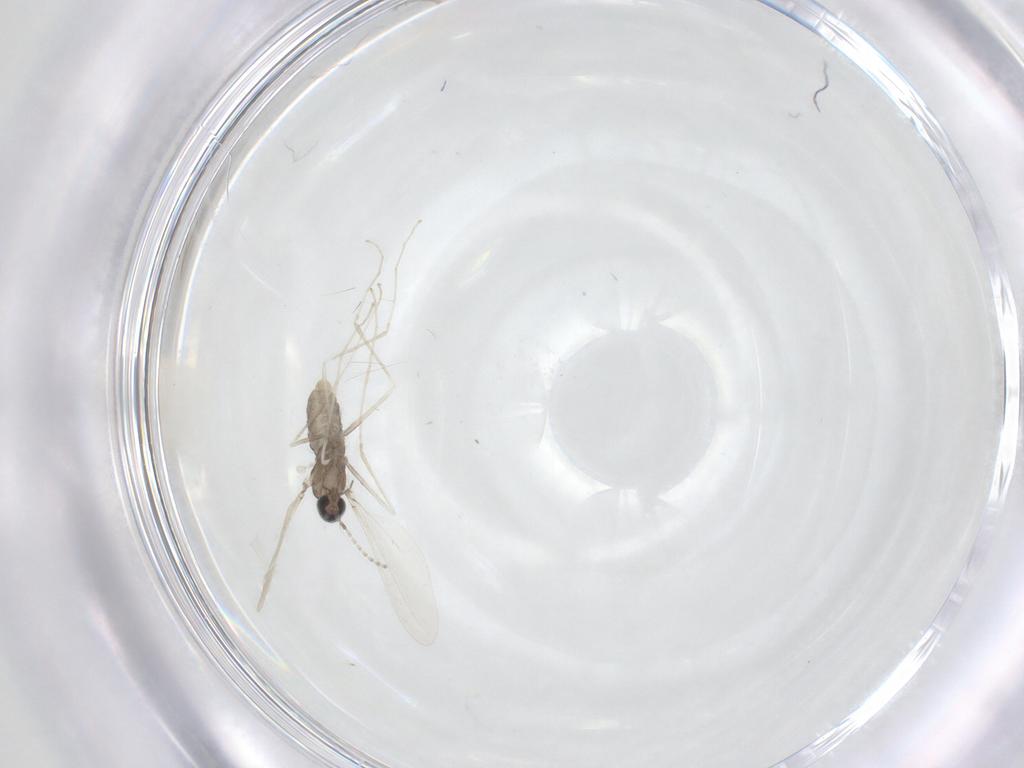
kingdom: Animalia
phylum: Arthropoda
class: Insecta
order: Diptera
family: Cecidomyiidae
